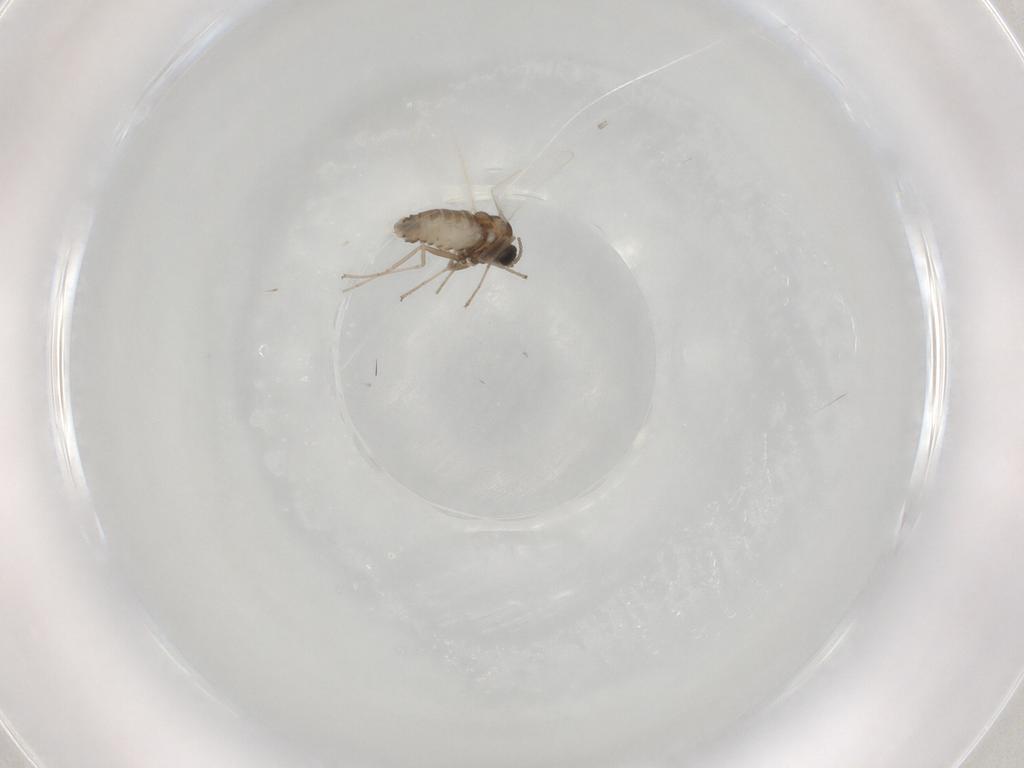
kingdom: Animalia
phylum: Arthropoda
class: Insecta
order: Diptera
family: Cecidomyiidae
